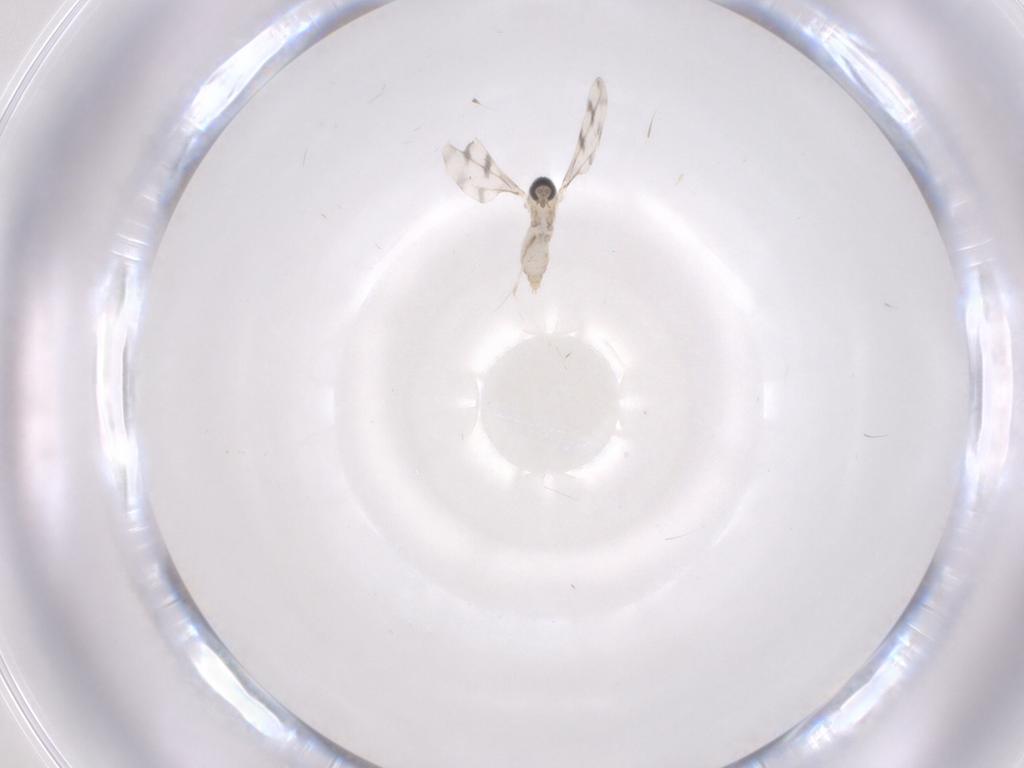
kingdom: Animalia
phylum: Arthropoda
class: Insecta
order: Diptera
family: Cecidomyiidae
